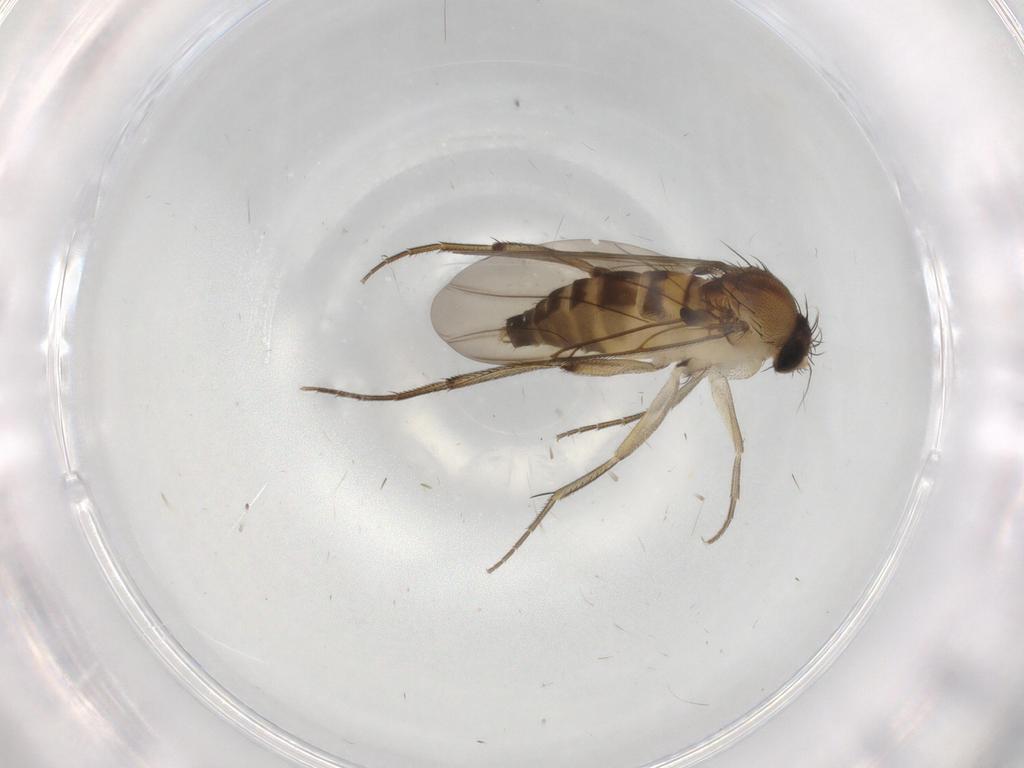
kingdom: Animalia
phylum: Arthropoda
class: Insecta
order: Diptera
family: Phoridae
